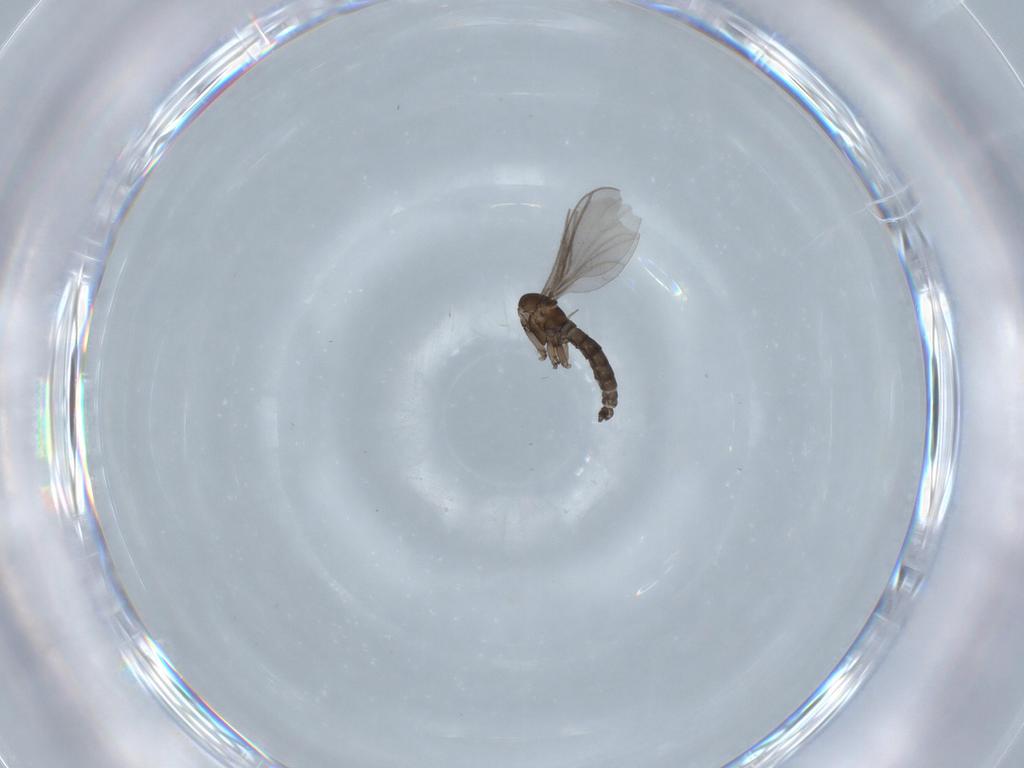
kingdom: Animalia
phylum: Arthropoda
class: Insecta
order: Diptera
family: Sciaridae
